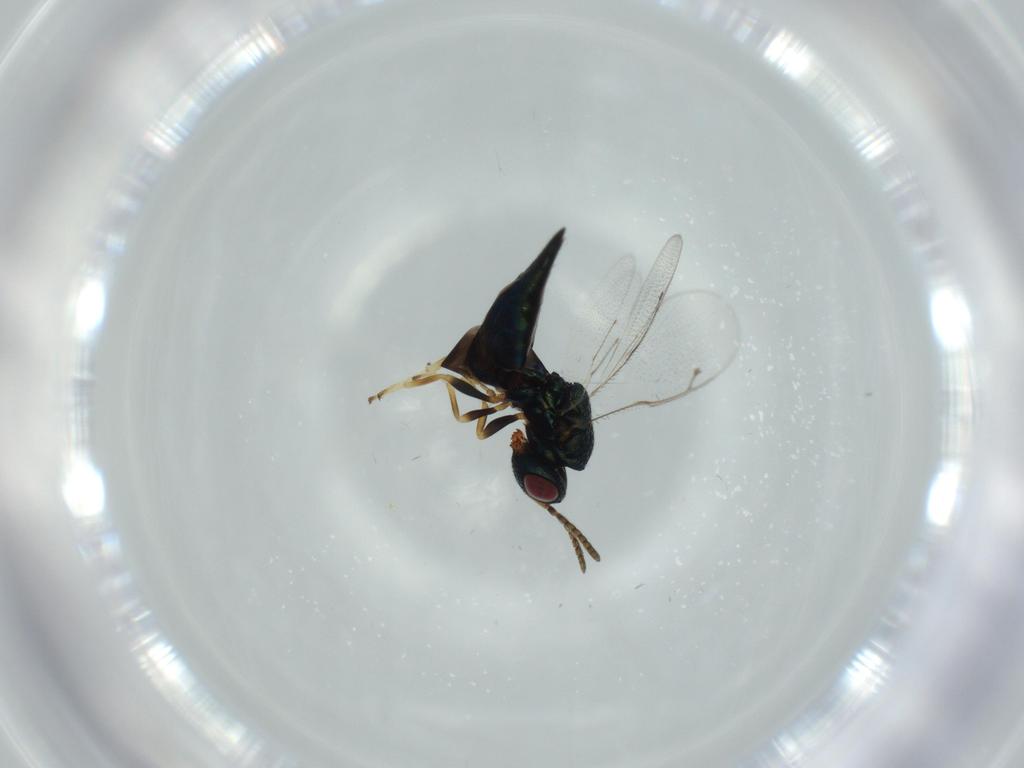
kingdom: Animalia
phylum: Arthropoda
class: Insecta
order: Hymenoptera
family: Pteromalidae
